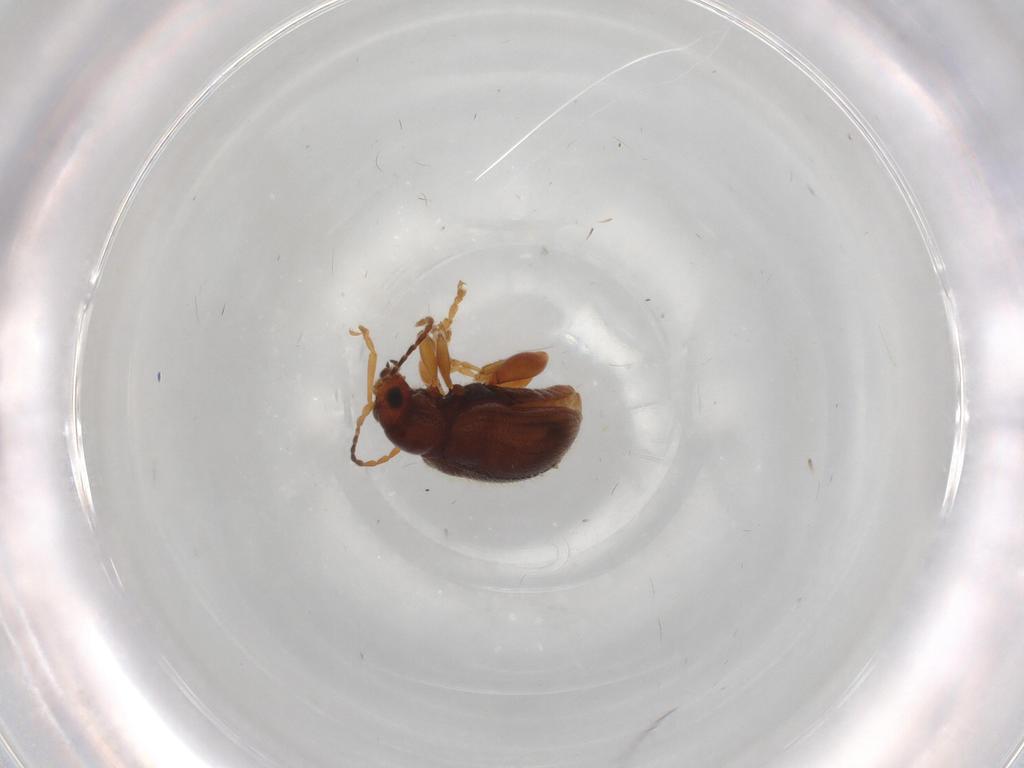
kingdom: Animalia
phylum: Arthropoda
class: Insecta
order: Coleoptera
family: Chrysomelidae
